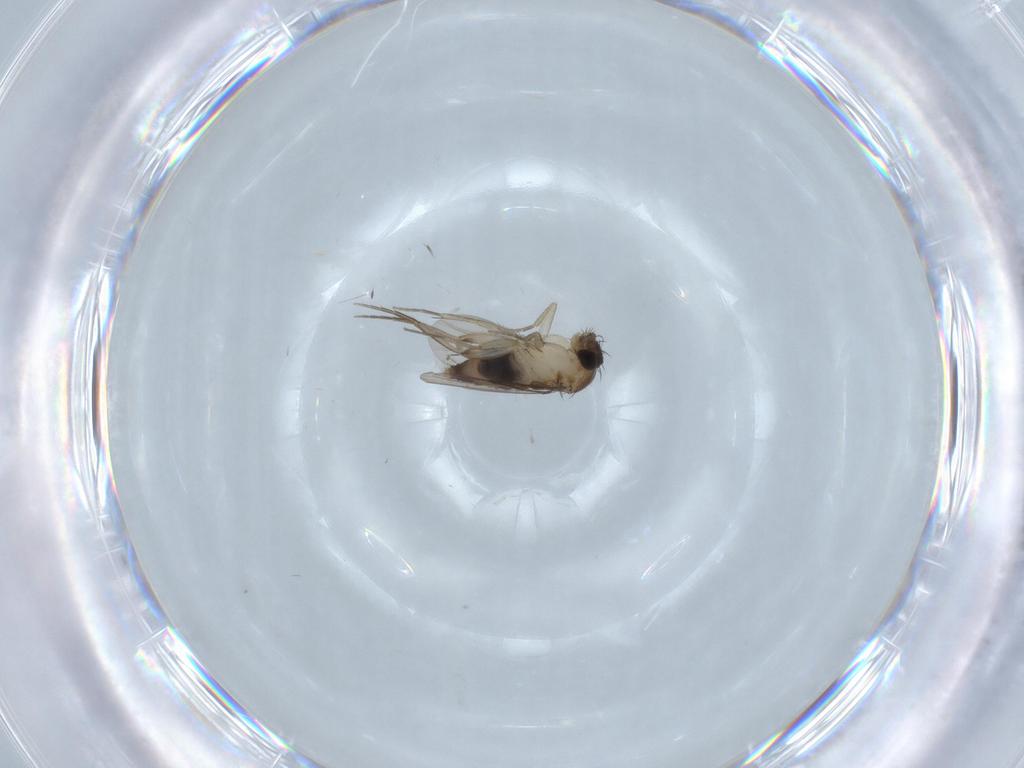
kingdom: Animalia
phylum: Arthropoda
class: Insecta
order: Diptera
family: Phoridae
